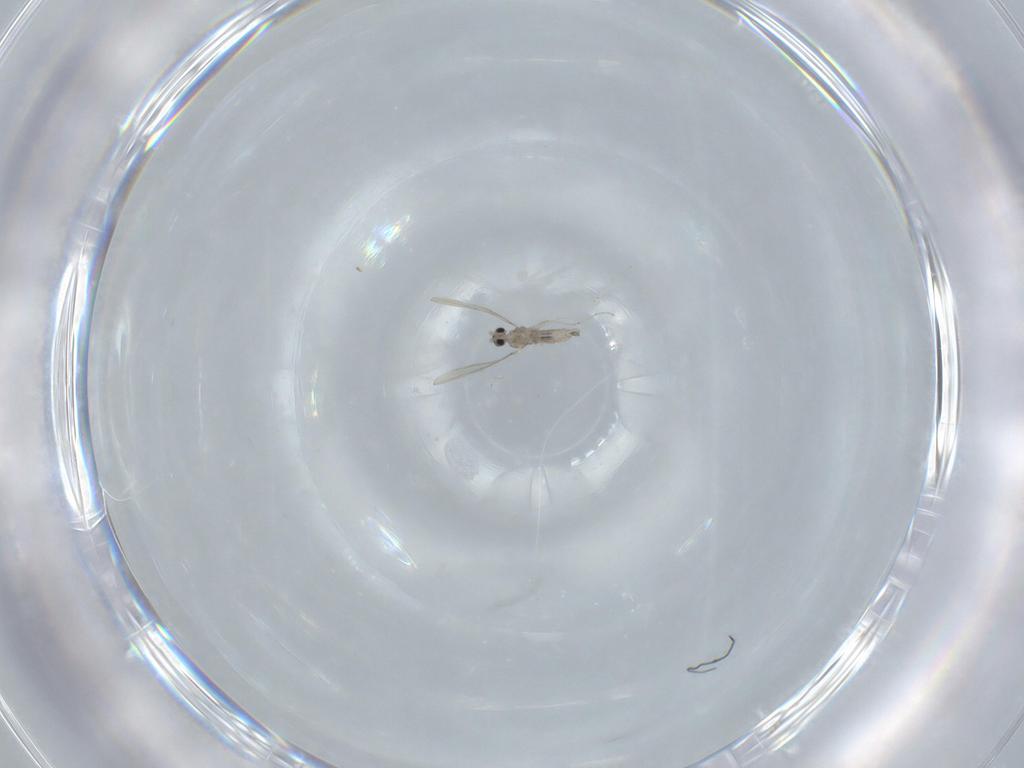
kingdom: Animalia
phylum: Arthropoda
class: Insecta
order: Diptera
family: Cecidomyiidae
